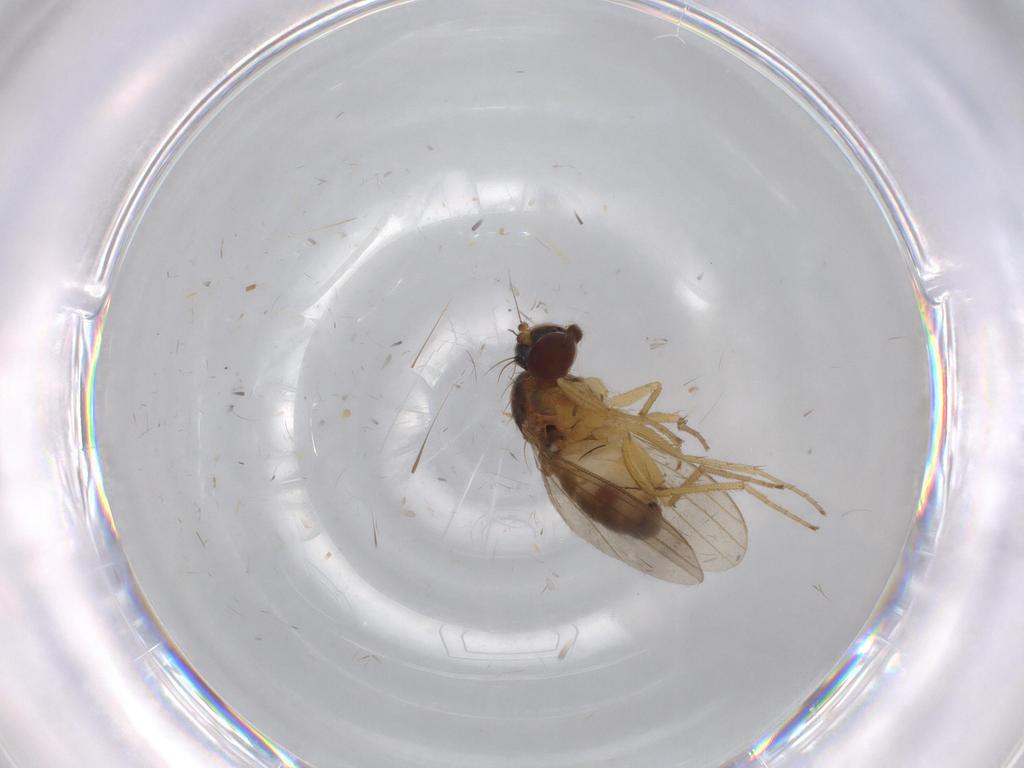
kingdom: Animalia
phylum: Arthropoda
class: Insecta
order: Diptera
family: Dolichopodidae
